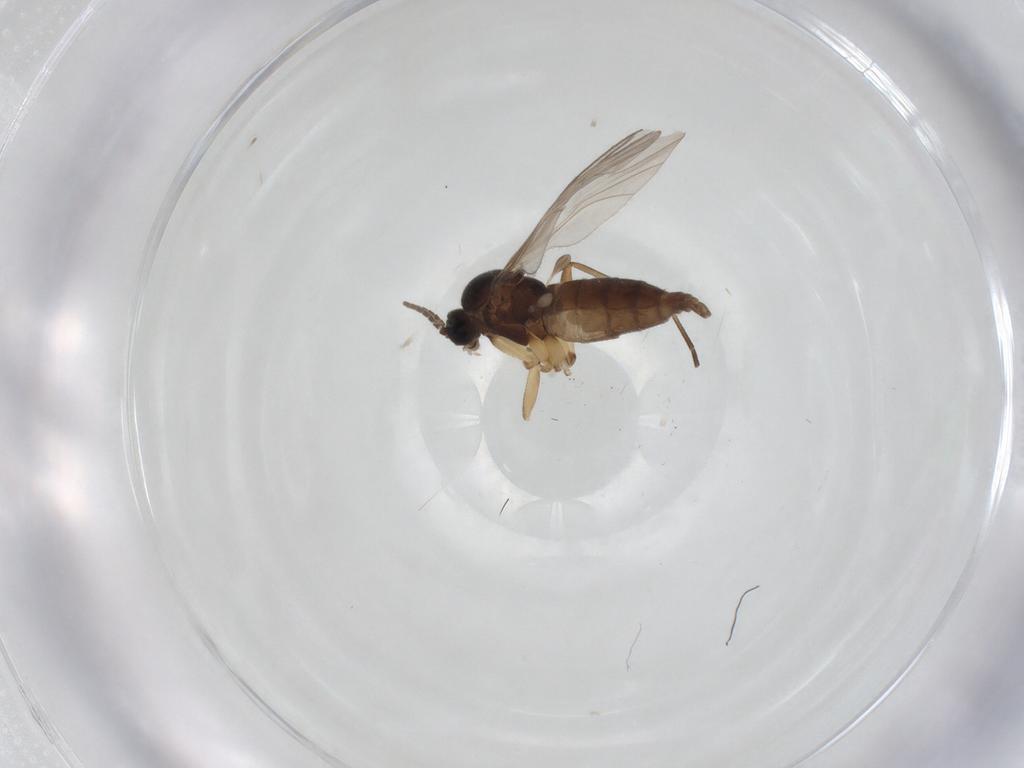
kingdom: Animalia
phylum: Arthropoda
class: Insecta
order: Diptera
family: Sciaridae
